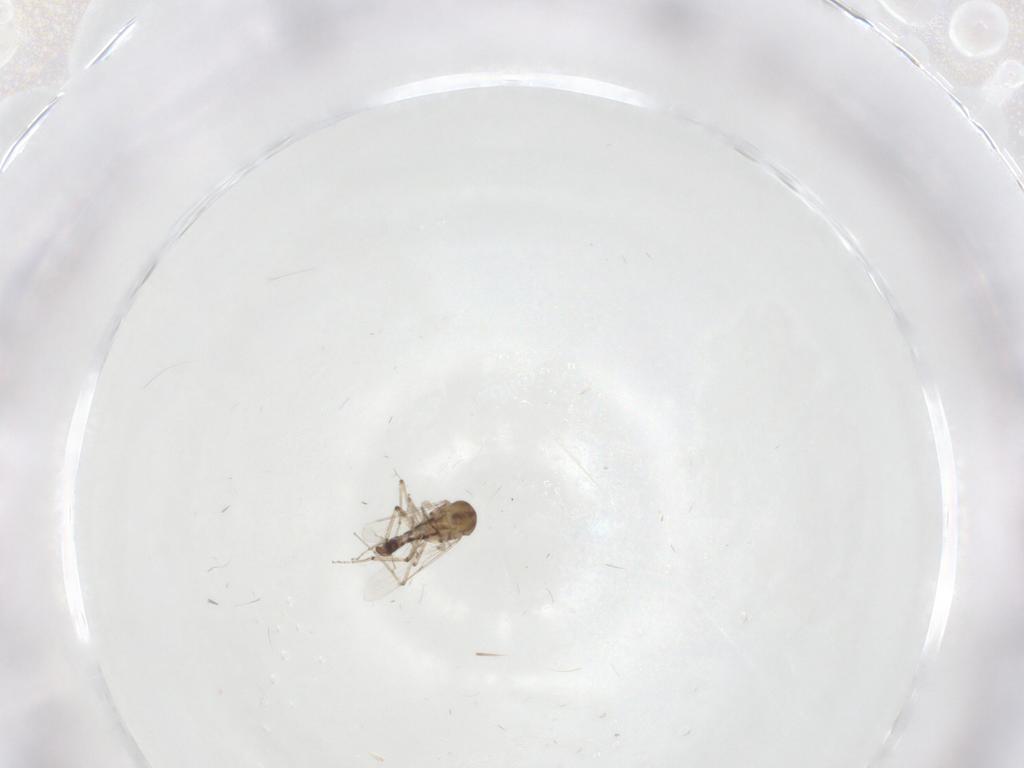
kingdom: Animalia
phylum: Arthropoda
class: Insecta
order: Diptera
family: Ceratopogonidae
